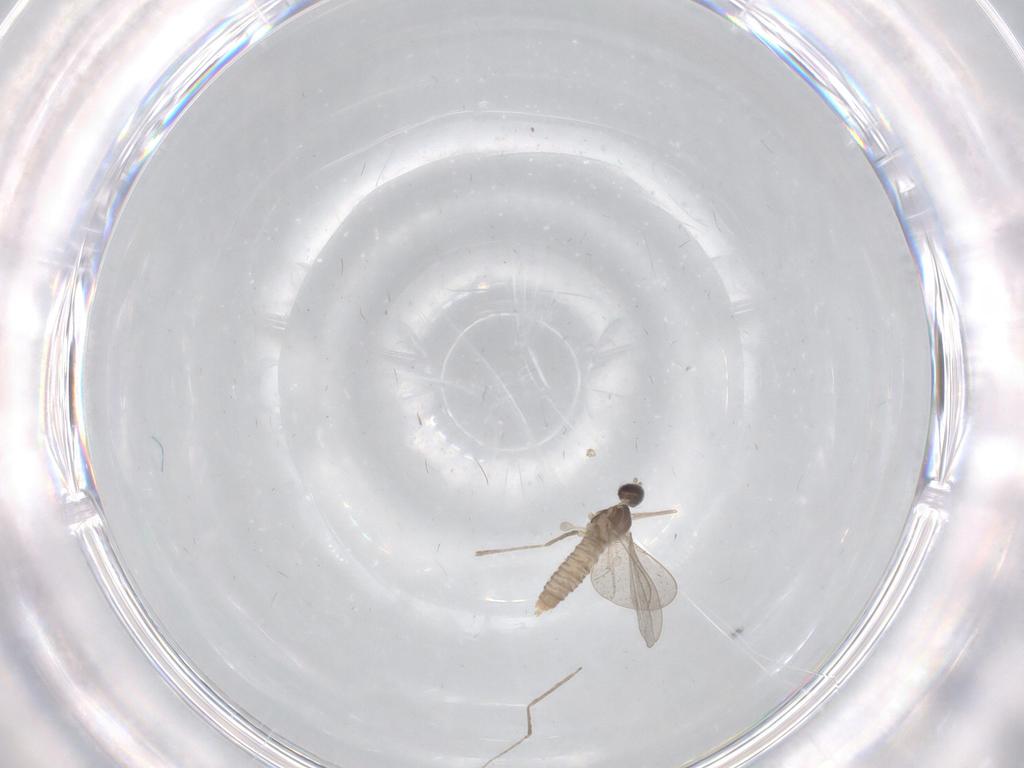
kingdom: Animalia
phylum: Arthropoda
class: Insecta
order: Diptera
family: Cecidomyiidae
